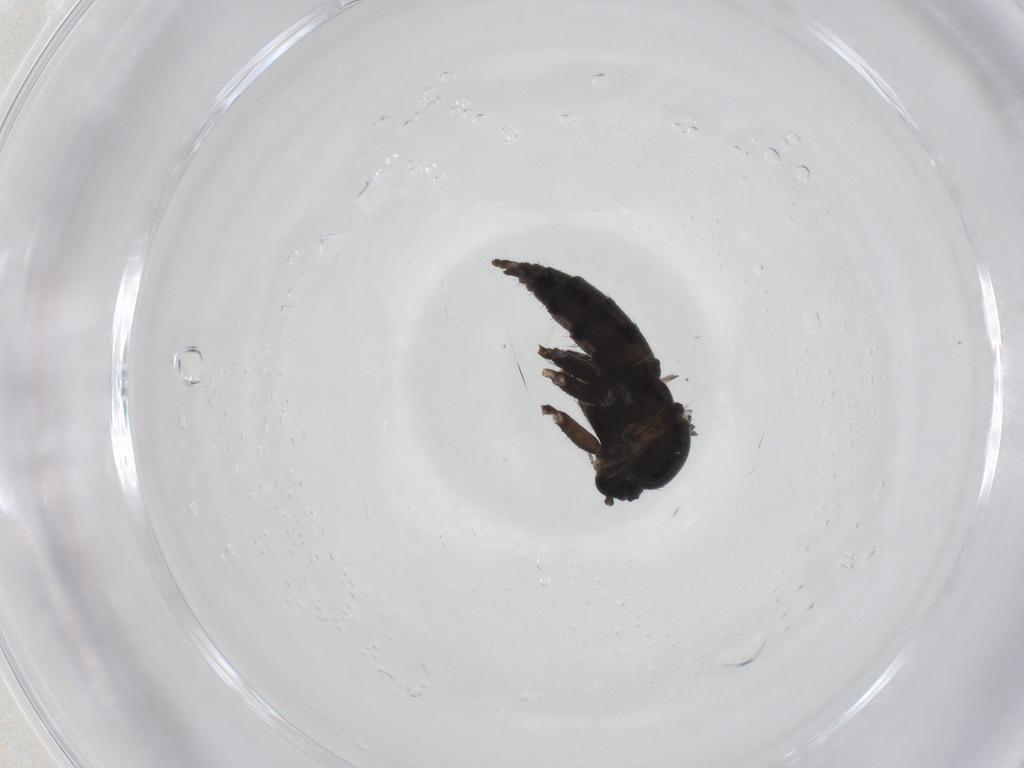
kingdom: Animalia
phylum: Arthropoda
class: Insecta
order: Diptera
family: Sciaridae
